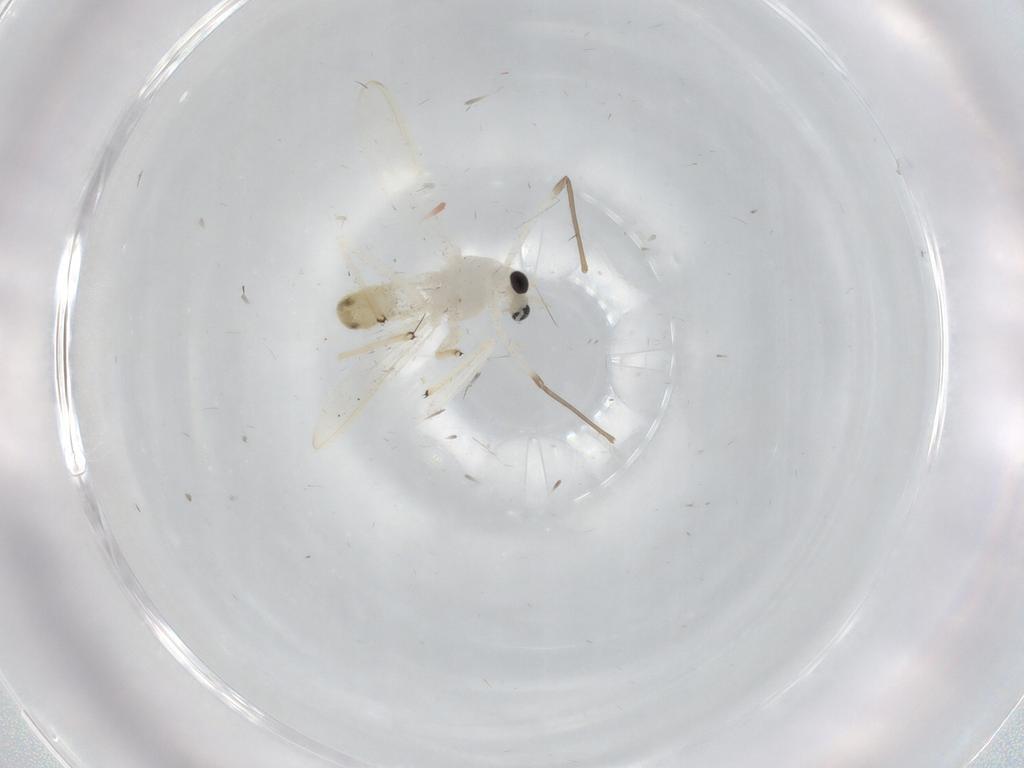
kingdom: Animalia
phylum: Arthropoda
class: Insecta
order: Diptera
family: Chironomidae
